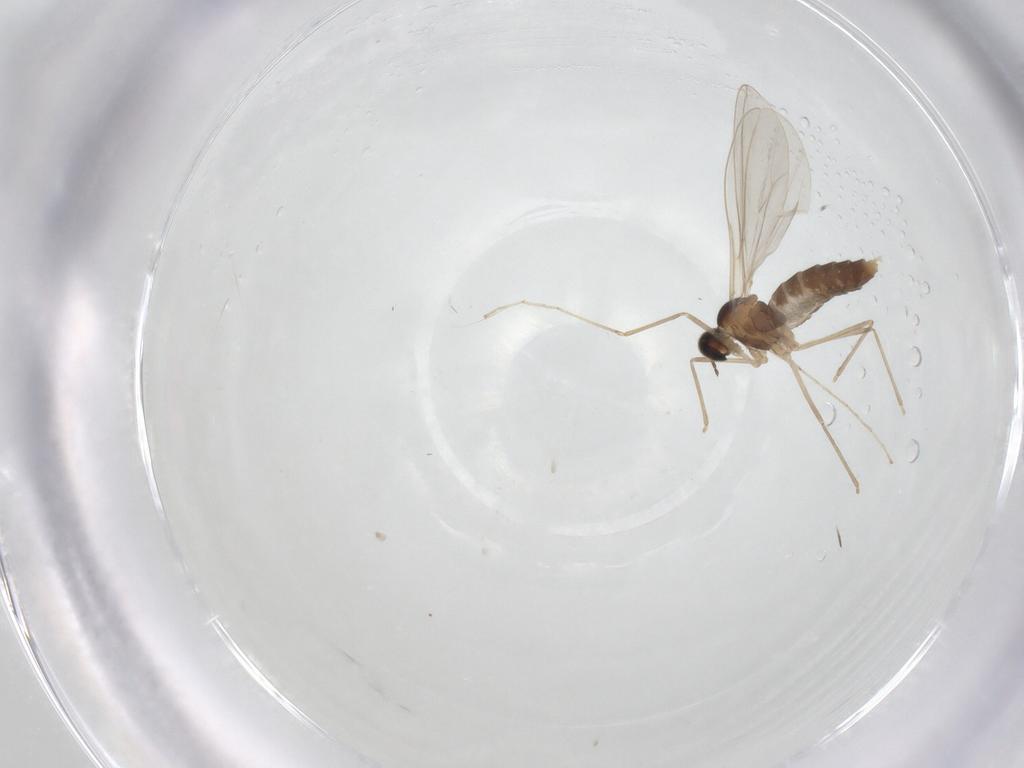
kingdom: Animalia
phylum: Arthropoda
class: Insecta
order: Diptera
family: Cecidomyiidae
